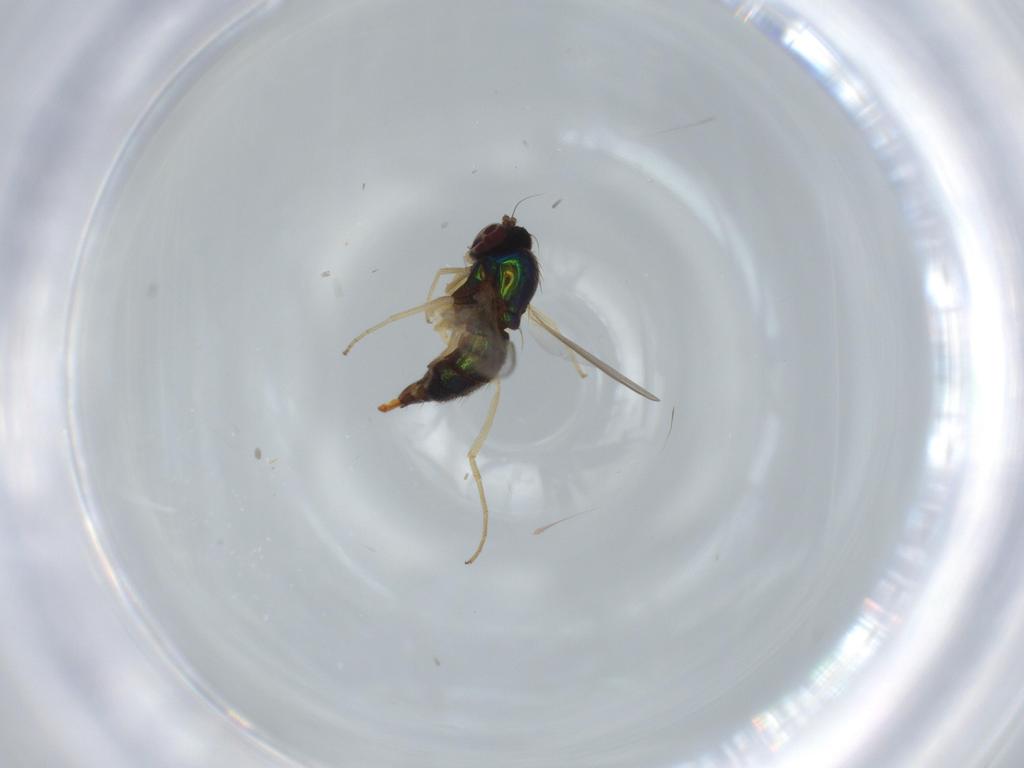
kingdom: Animalia
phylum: Arthropoda
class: Insecta
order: Diptera
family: Dolichopodidae
